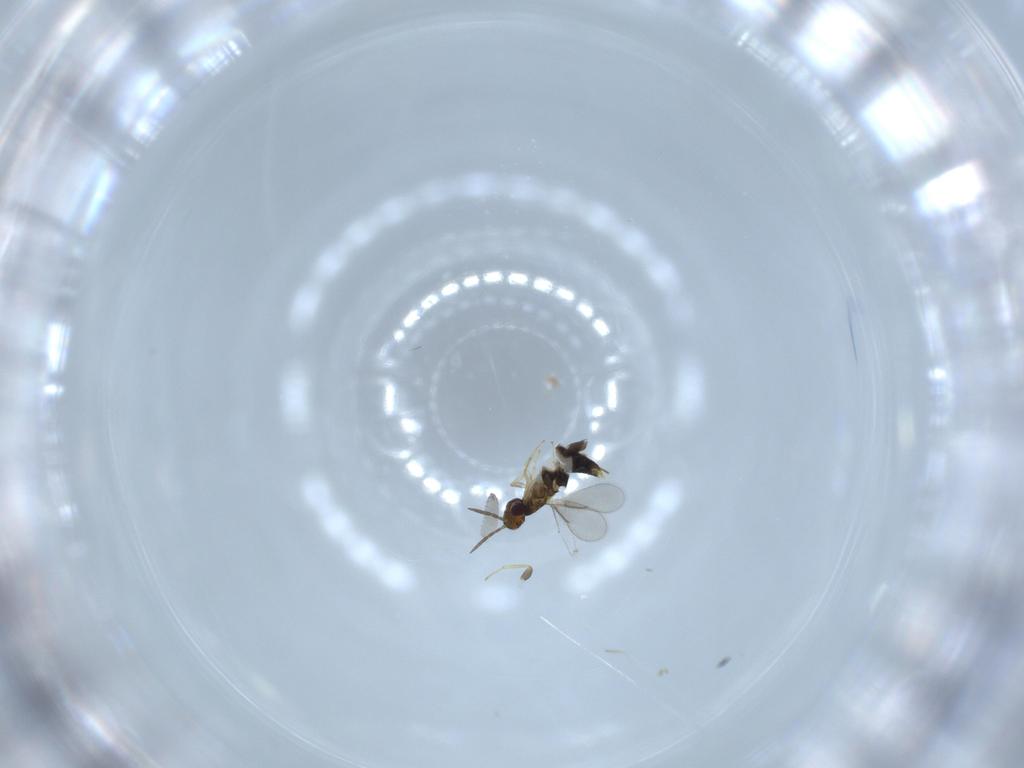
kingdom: Animalia
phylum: Arthropoda
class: Insecta
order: Hymenoptera
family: Aphelinidae
